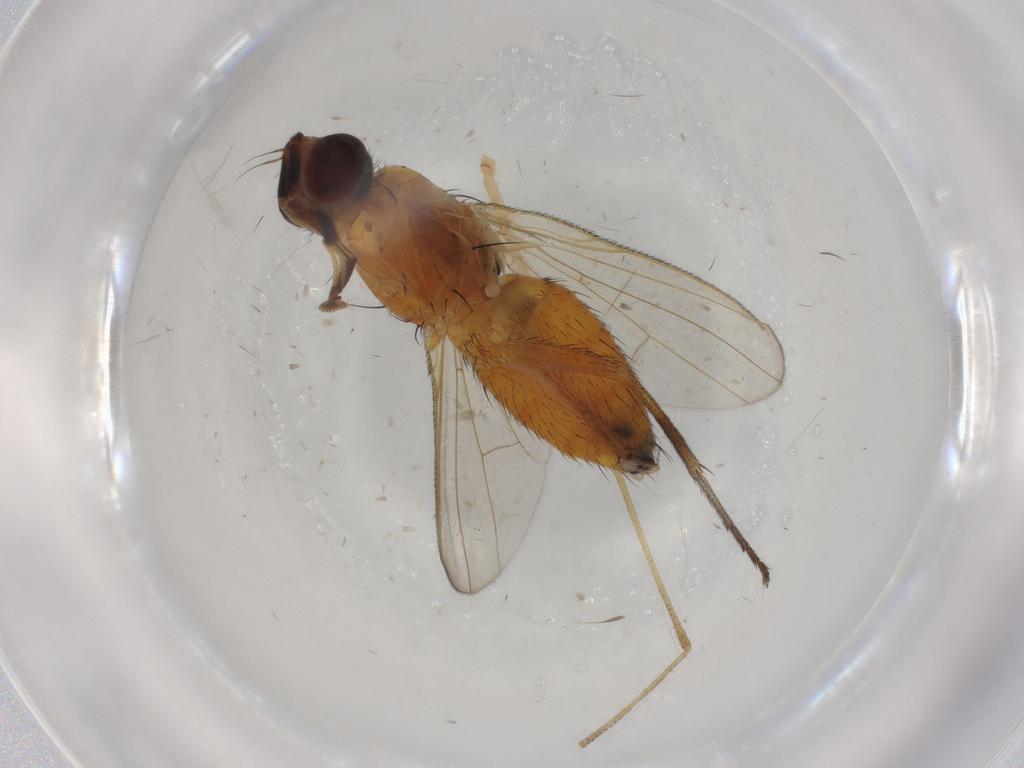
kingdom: Animalia
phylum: Arthropoda
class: Insecta
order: Diptera
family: Muscidae
